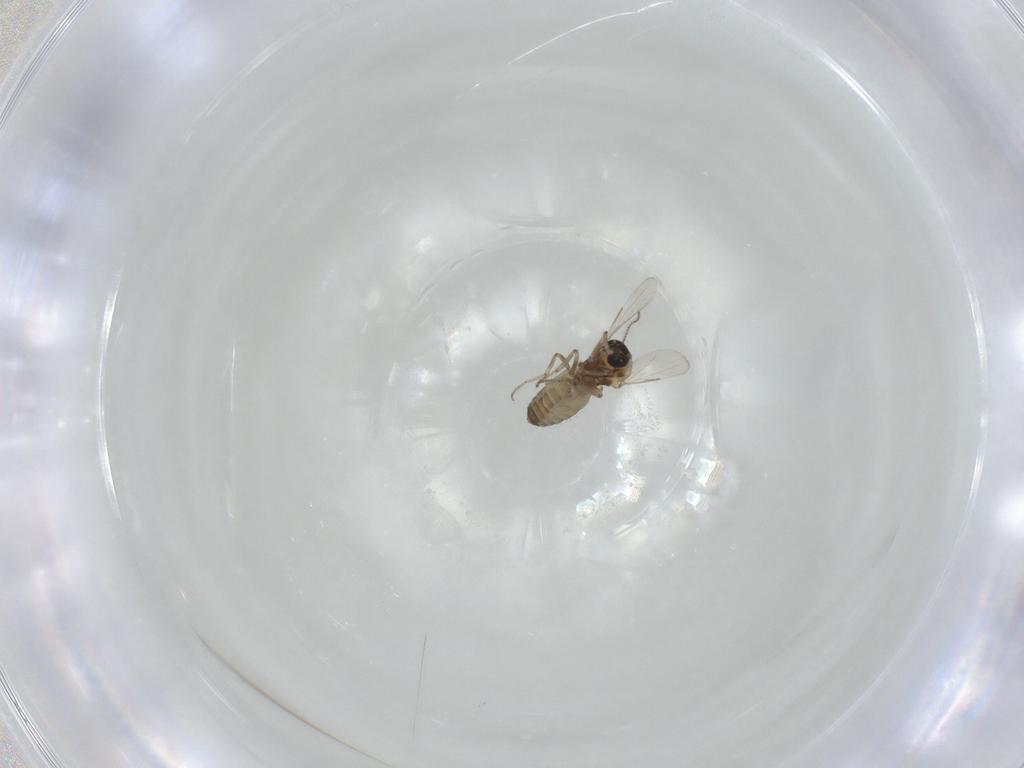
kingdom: Animalia
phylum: Arthropoda
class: Insecta
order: Diptera
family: Ceratopogonidae
